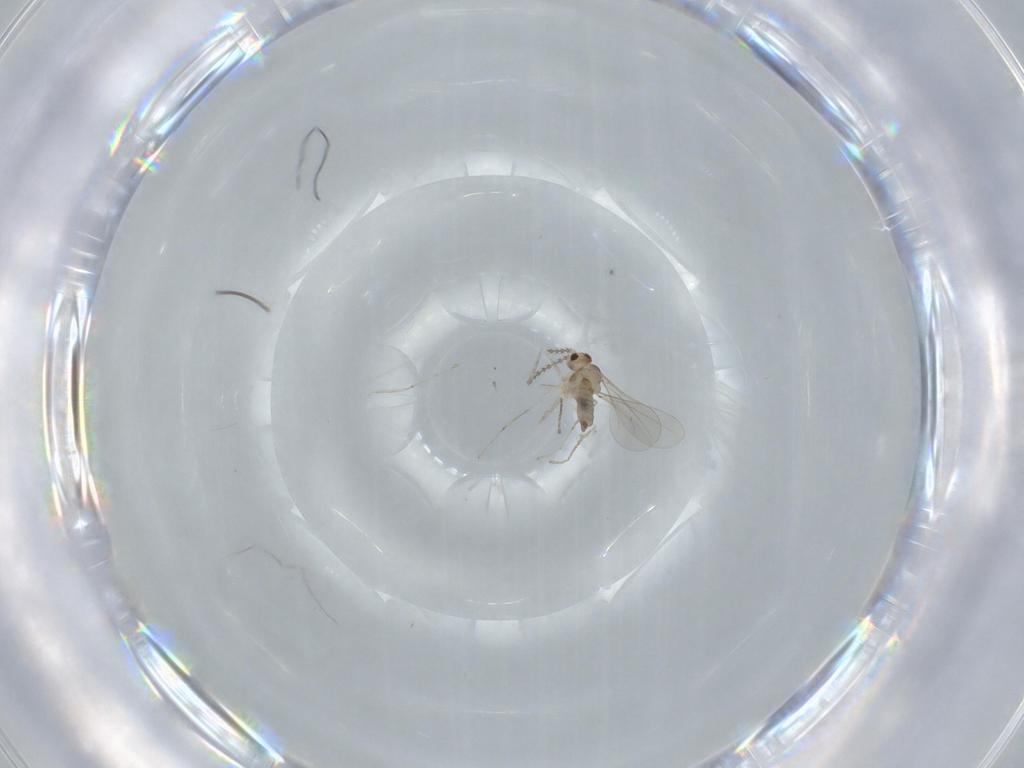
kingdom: Animalia
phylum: Arthropoda
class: Insecta
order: Diptera
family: Cecidomyiidae
